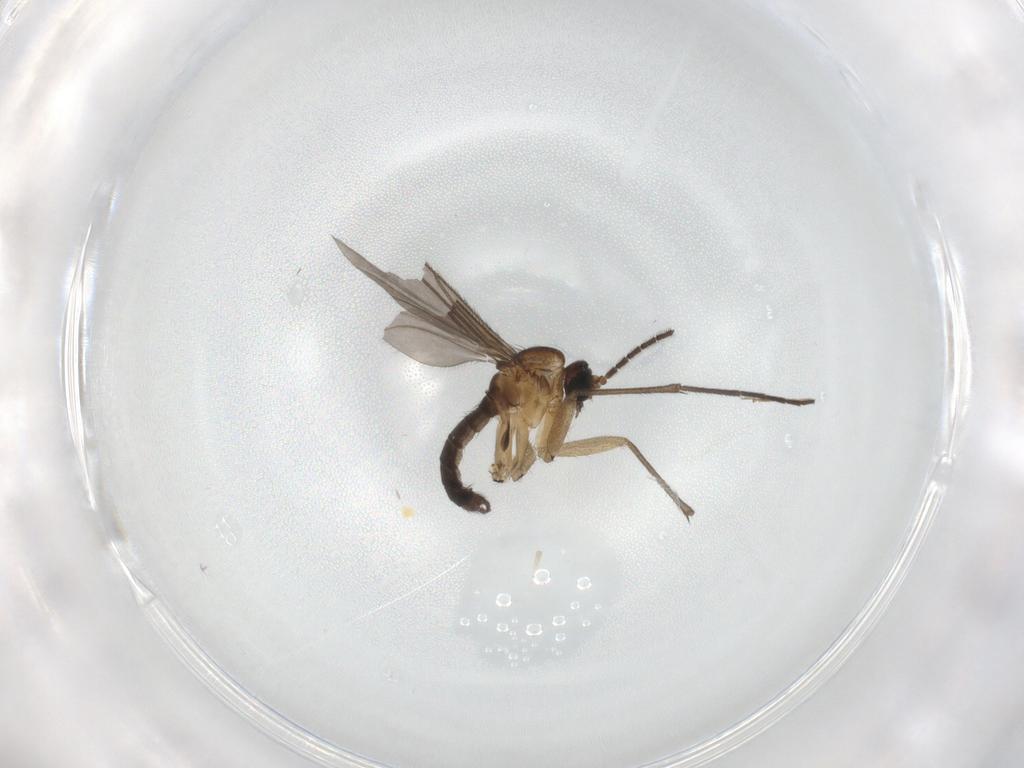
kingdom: Animalia
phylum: Arthropoda
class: Insecta
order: Diptera
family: Sciaridae
